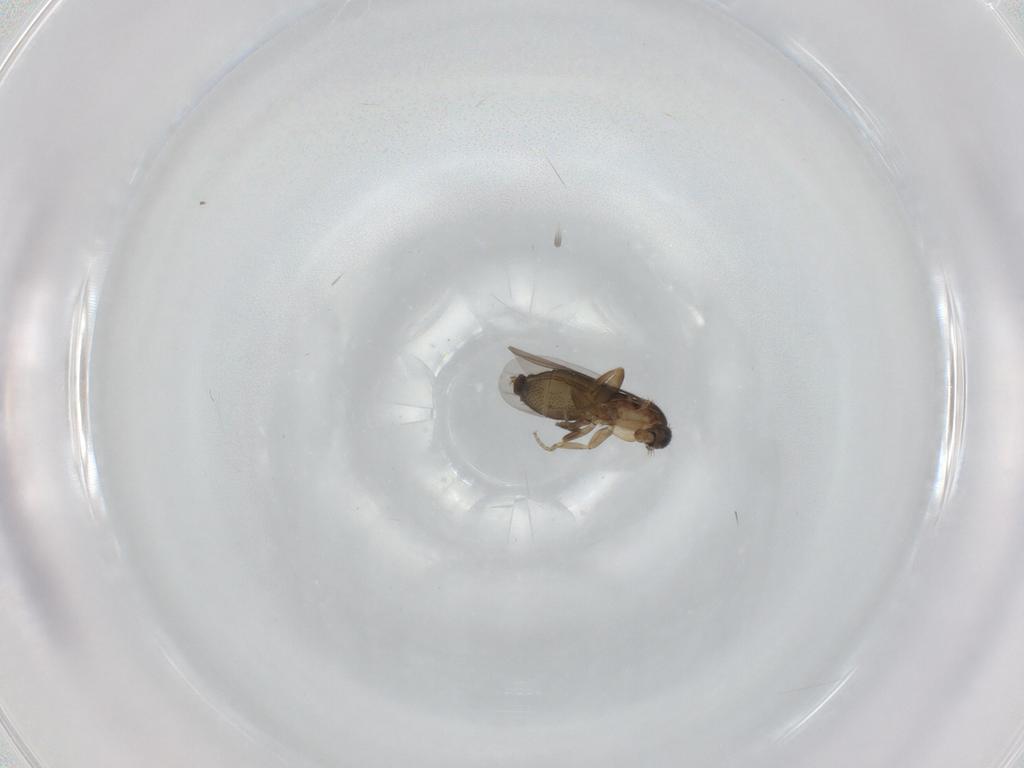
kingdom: Animalia
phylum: Arthropoda
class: Insecta
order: Diptera
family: Phoridae
